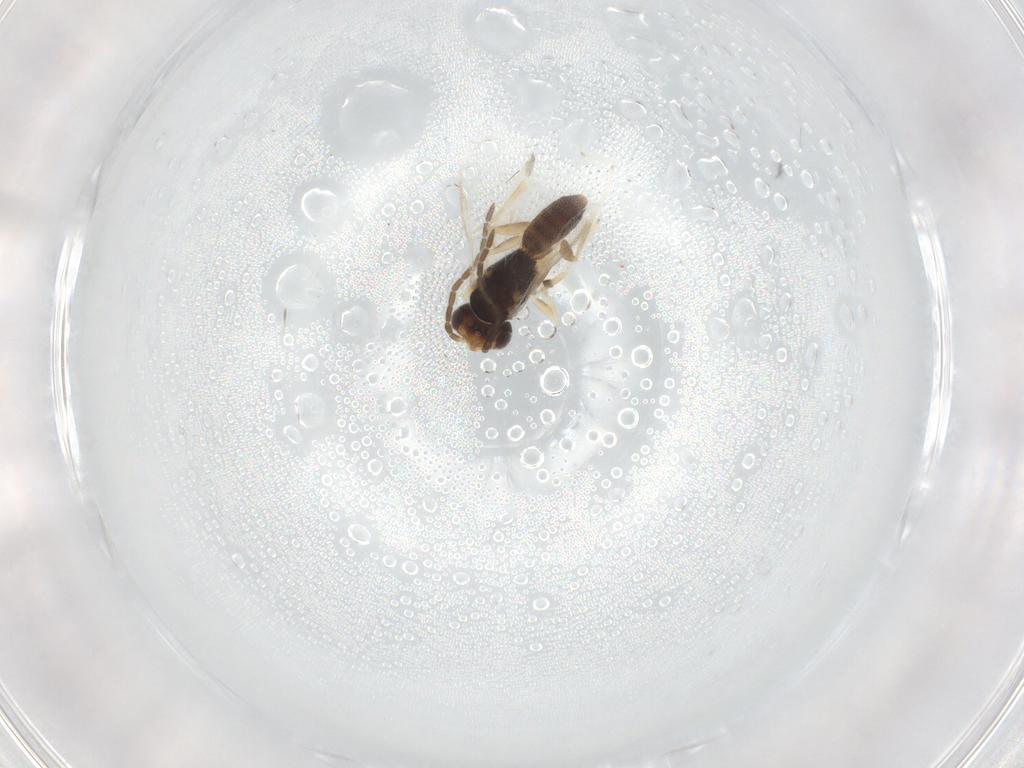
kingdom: Animalia
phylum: Arthropoda
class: Insecta
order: Hymenoptera
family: Dryinidae
